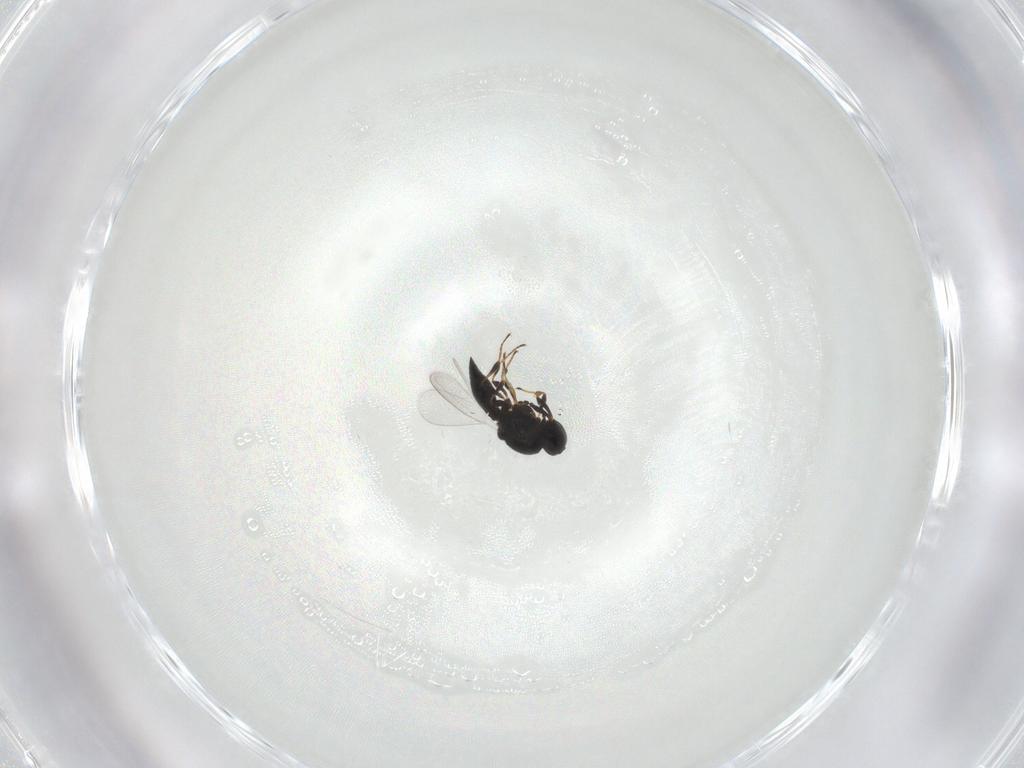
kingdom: Animalia
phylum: Arthropoda
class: Insecta
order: Hymenoptera
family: Platygastridae
